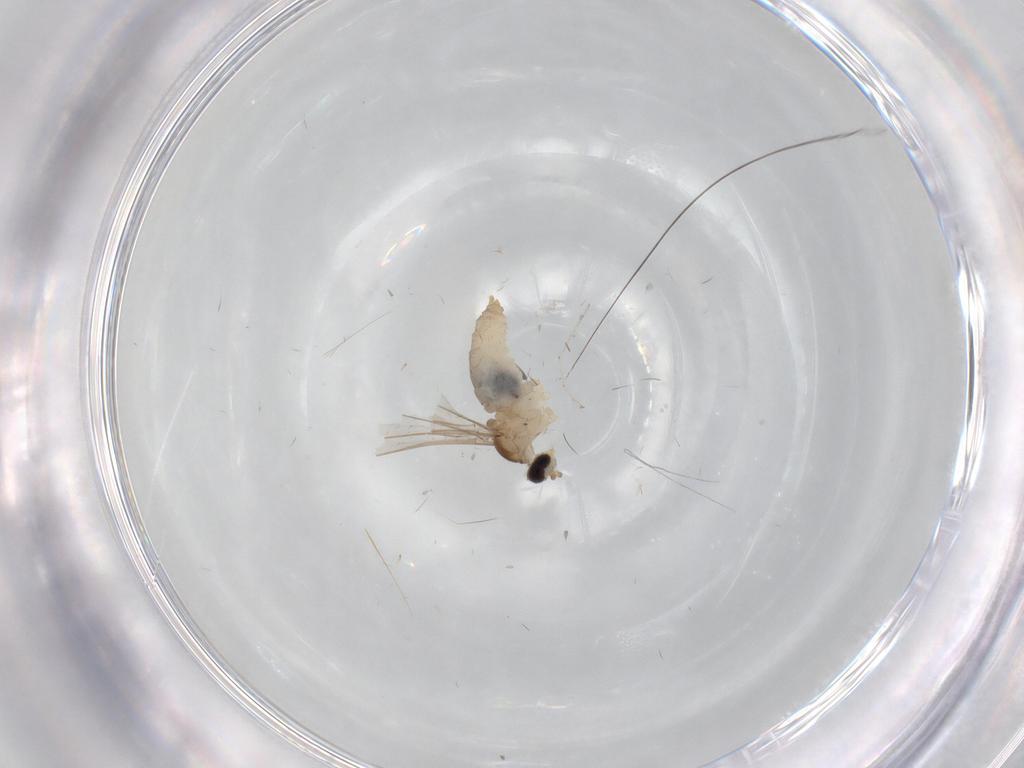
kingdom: Animalia
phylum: Arthropoda
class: Insecta
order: Diptera
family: Cecidomyiidae
